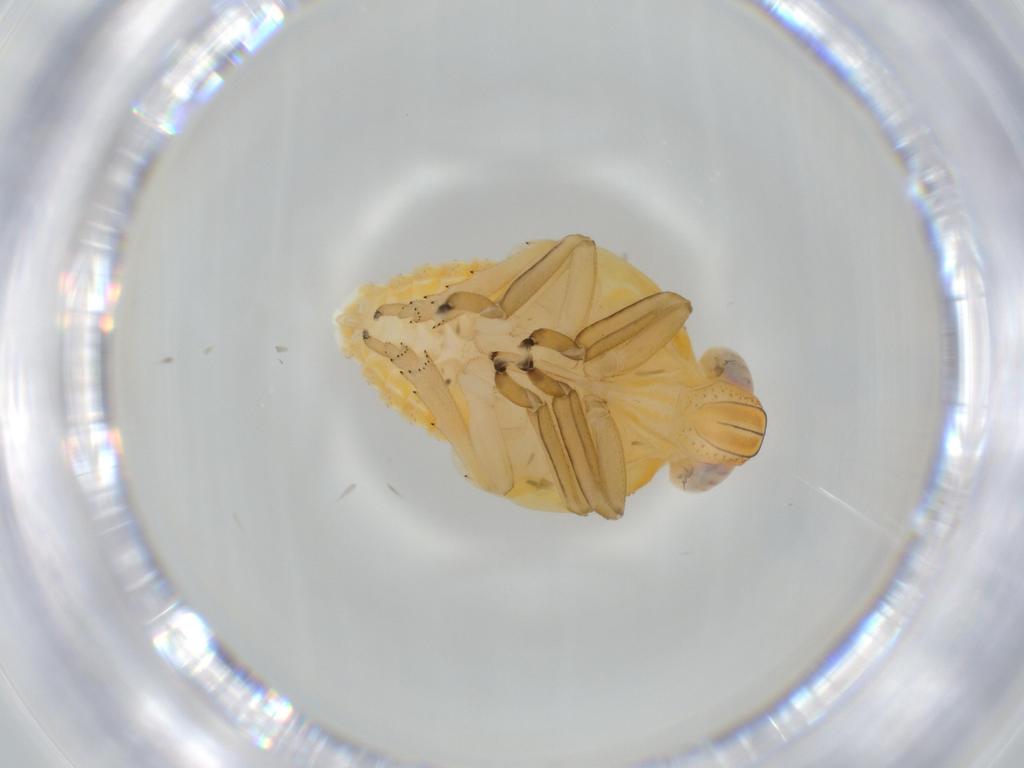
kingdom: Animalia
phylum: Arthropoda
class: Insecta
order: Hemiptera
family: Issidae
